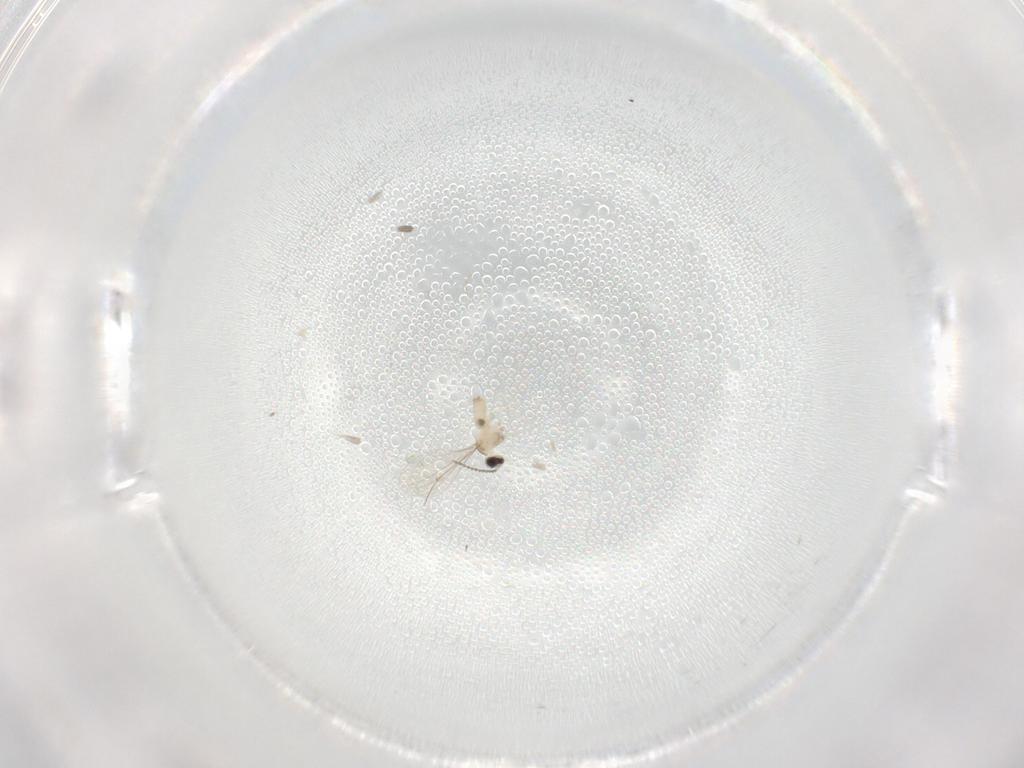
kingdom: Animalia
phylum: Arthropoda
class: Insecta
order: Diptera
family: Cecidomyiidae
